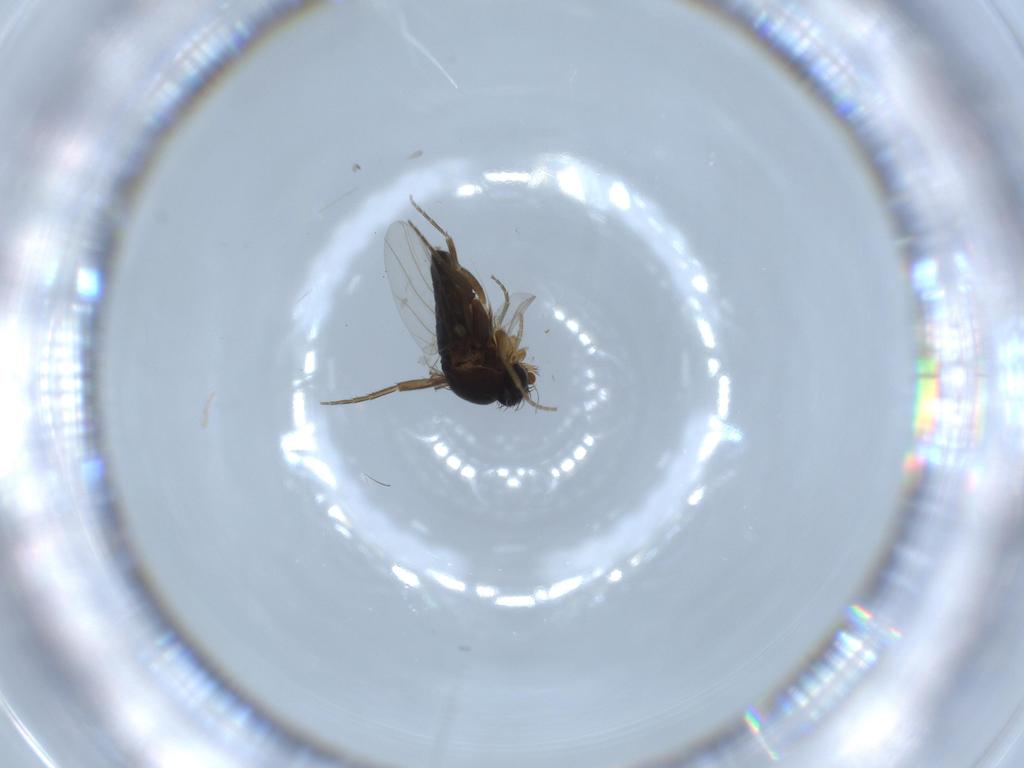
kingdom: Animalia
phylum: Arthropoda
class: Insecta
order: Diptera
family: Phoridae
